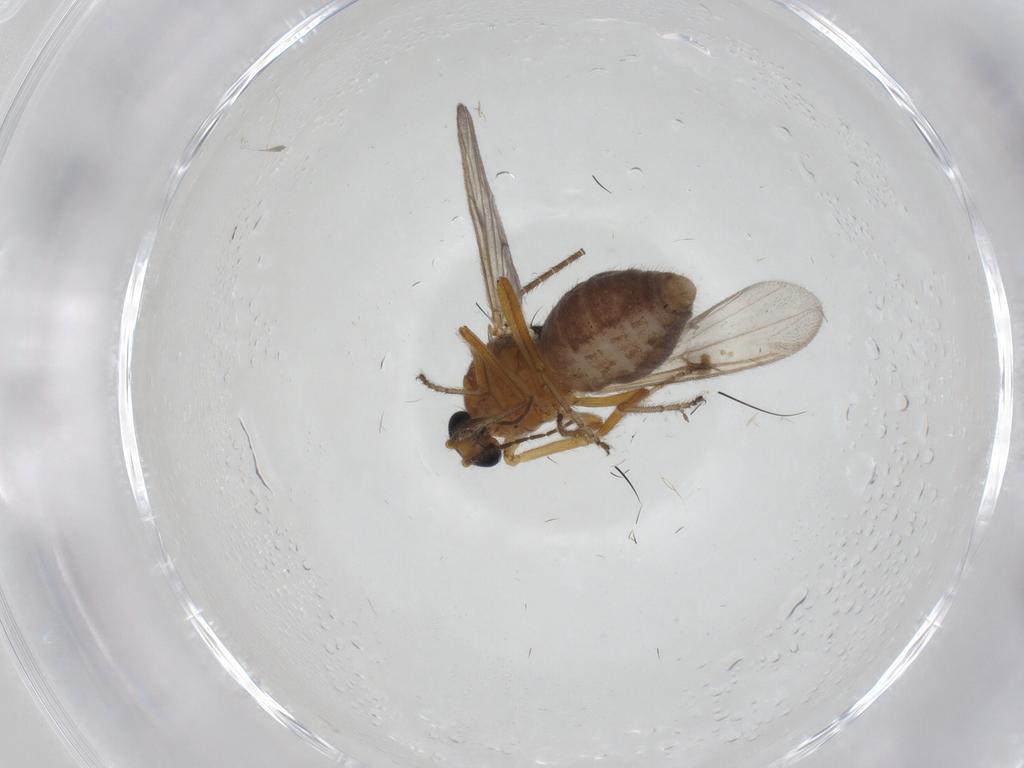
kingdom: Animalia
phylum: Arthropoda
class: Insecta
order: Diptera
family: Ceratopogonidae
